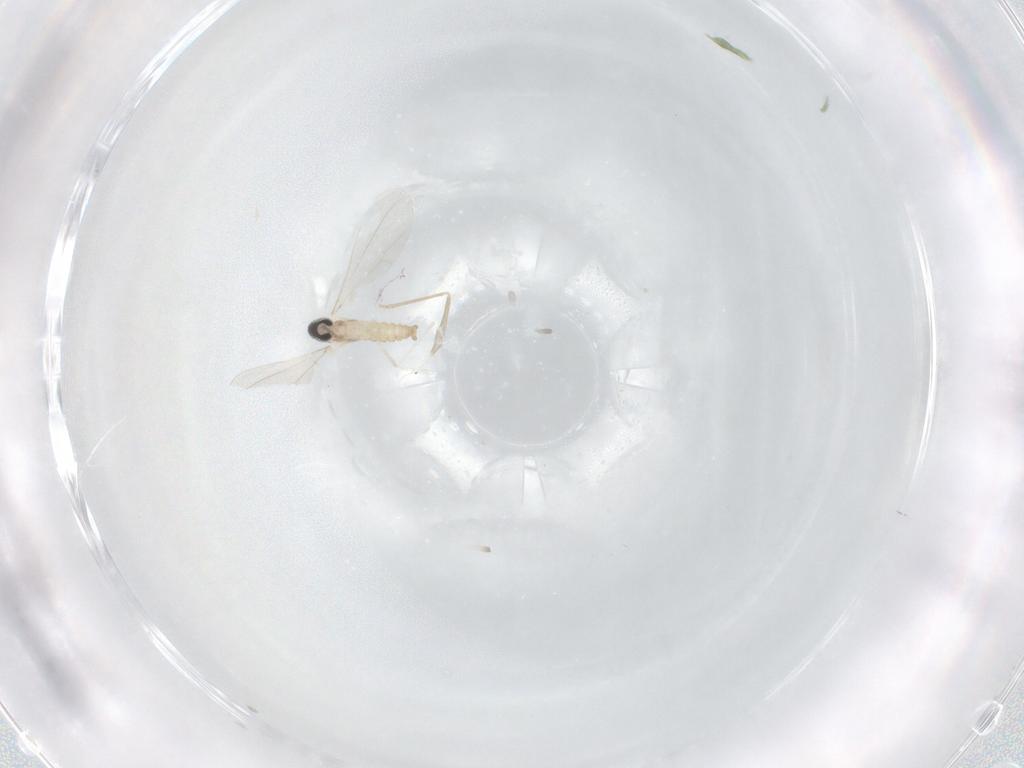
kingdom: Animalia
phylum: Arthropoda
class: Insecta
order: Diptera
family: Cecidomyiidae
